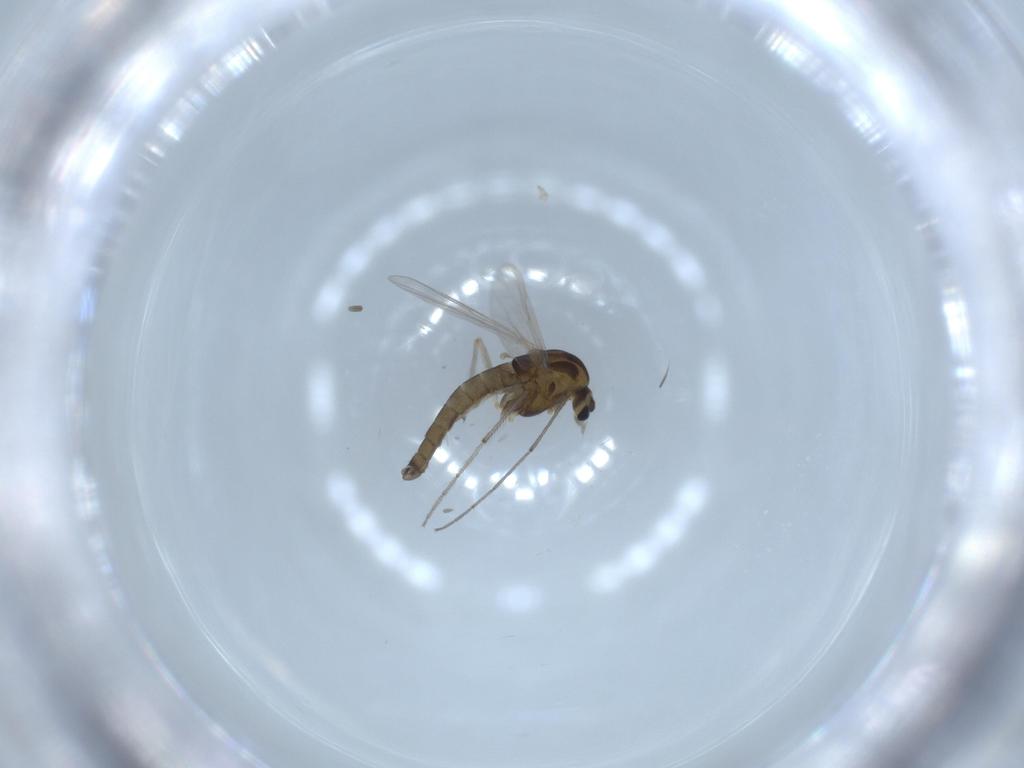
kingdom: Animalia
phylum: Arthropoda
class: Insecta
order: Diptera
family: Chironomidae
